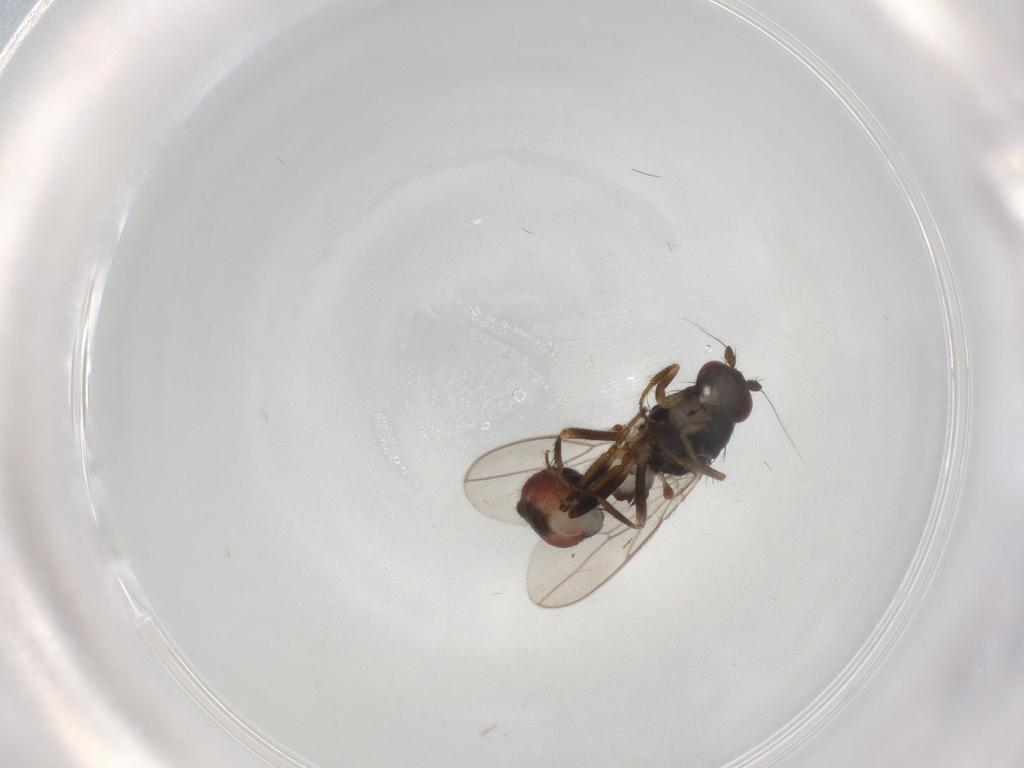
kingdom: Animalia
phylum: Arthropoda
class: Insecta
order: Diptera
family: Sphaeroceridae
